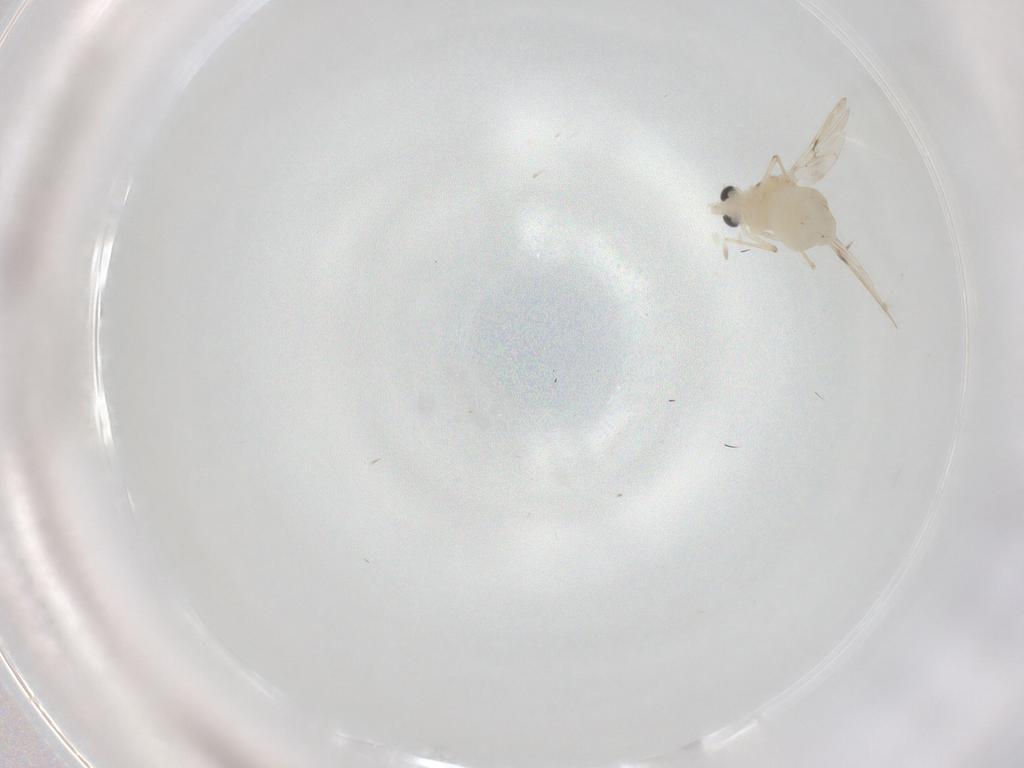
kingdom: Animalia
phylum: Arthropoda
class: Insecta
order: Diptera
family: Chironomidae
